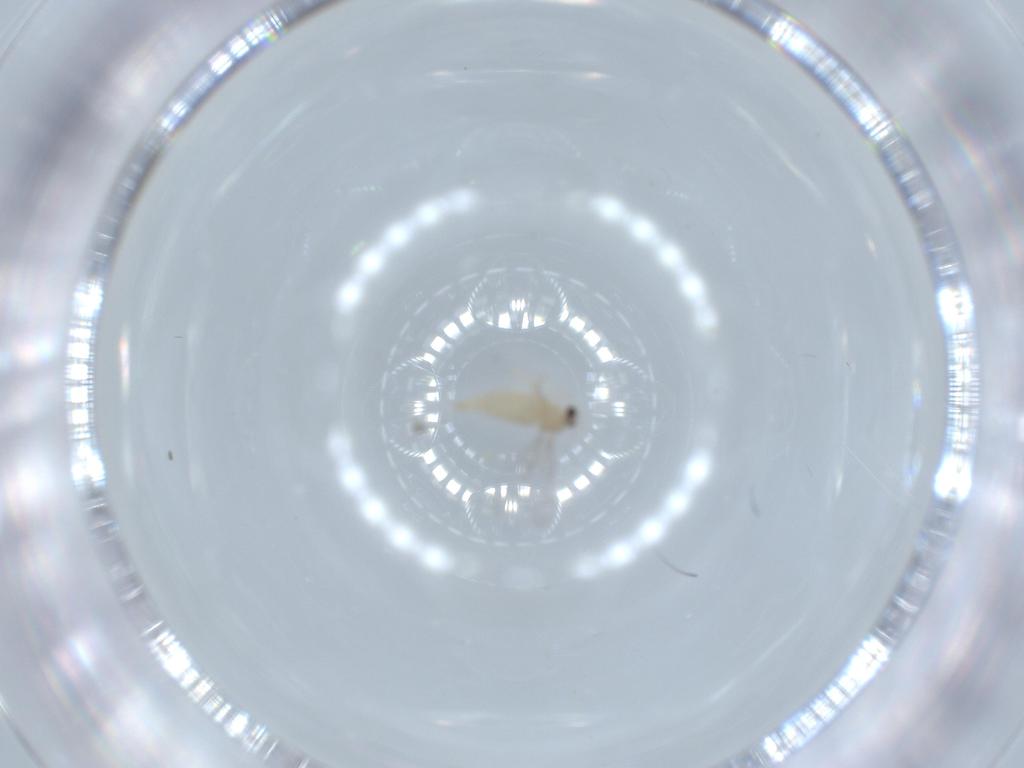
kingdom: Animalia
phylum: Arthropoda
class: Insecta
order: Diptera
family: Cecidomyiidae
